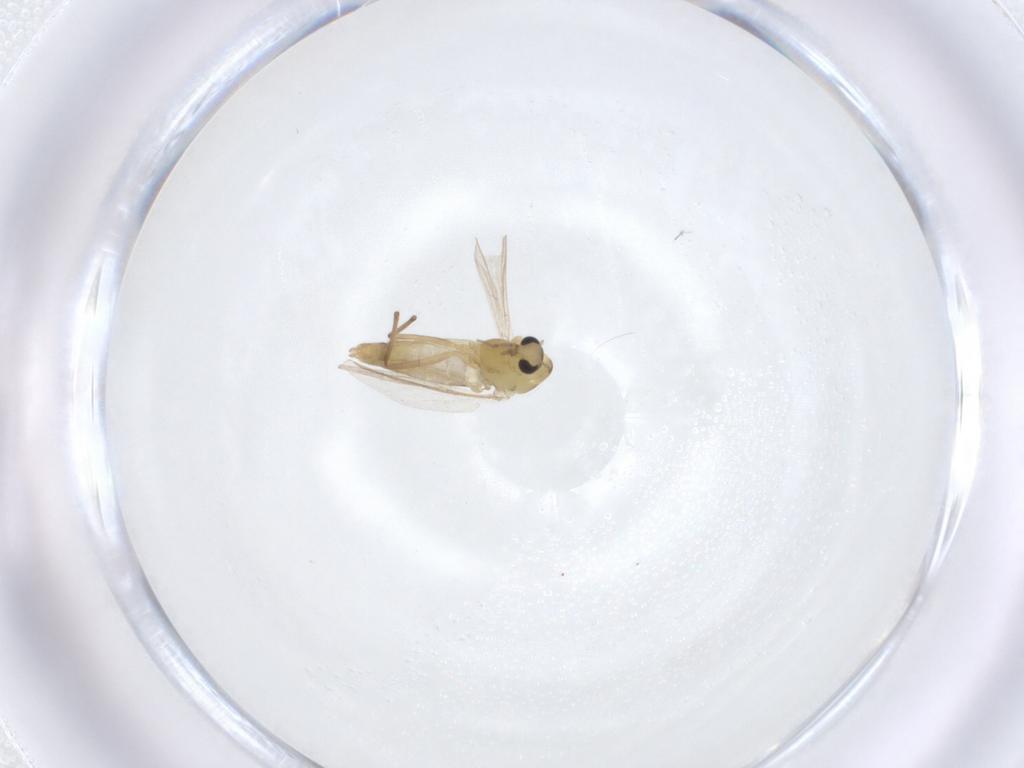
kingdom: Animalia
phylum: Arthropoda
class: Insecta
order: Diptera
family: Chironomidae
